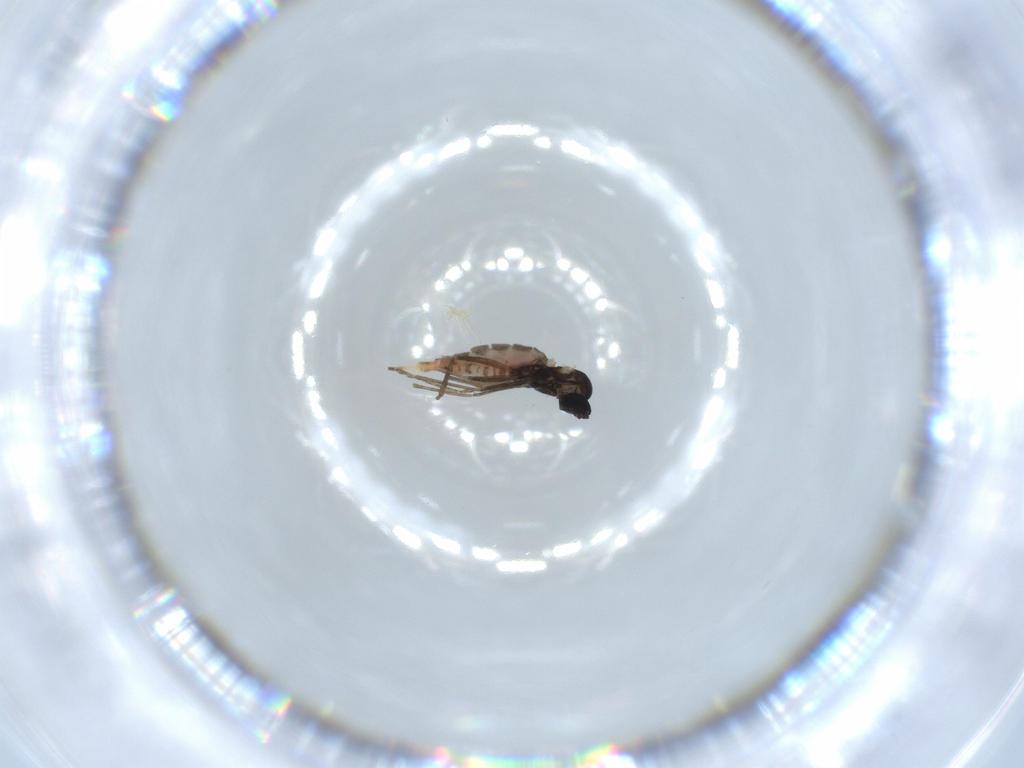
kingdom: Animalia
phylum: Arthropoda
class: Insecta
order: Diptera
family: Cecidomyiidae
